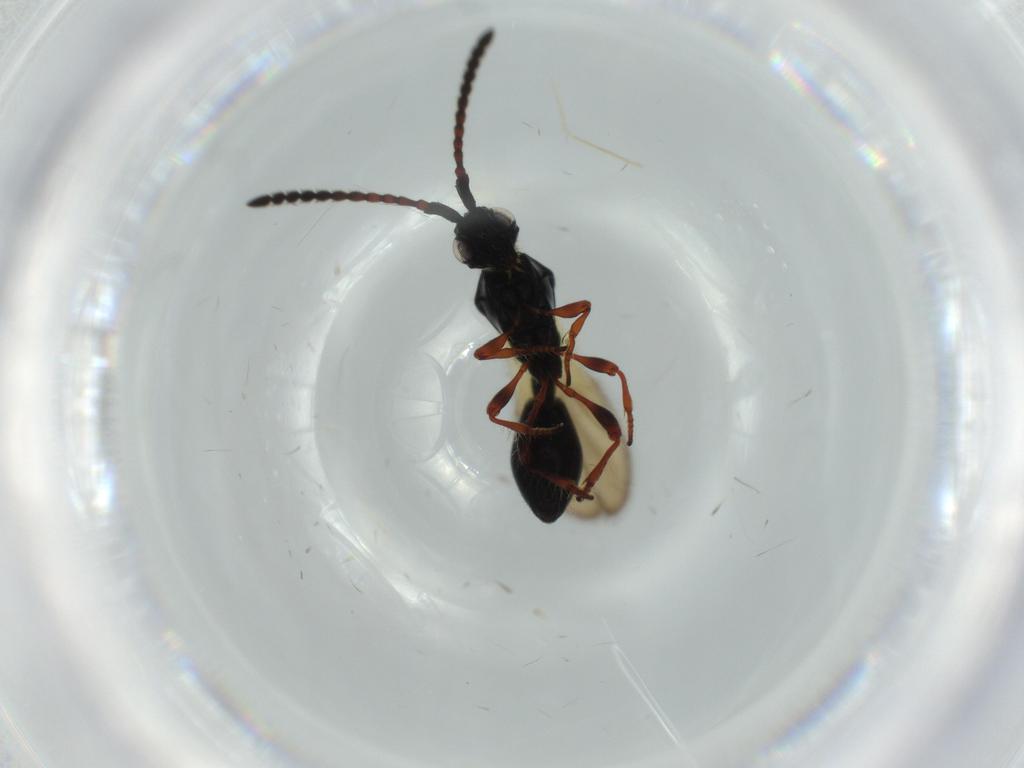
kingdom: Animalia
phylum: Arthropoda
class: Insecta
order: Hymenoptera
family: Diapriidae
